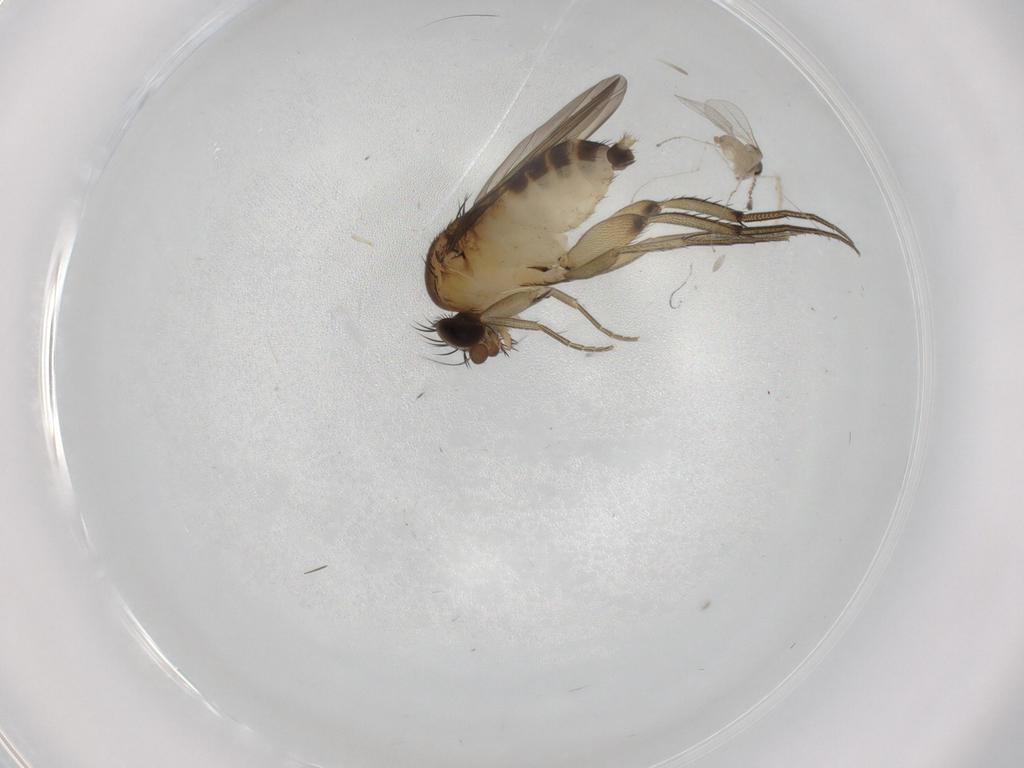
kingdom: Animalia
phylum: Arthropoda
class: Insecta
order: Diptera
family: Phoridae
